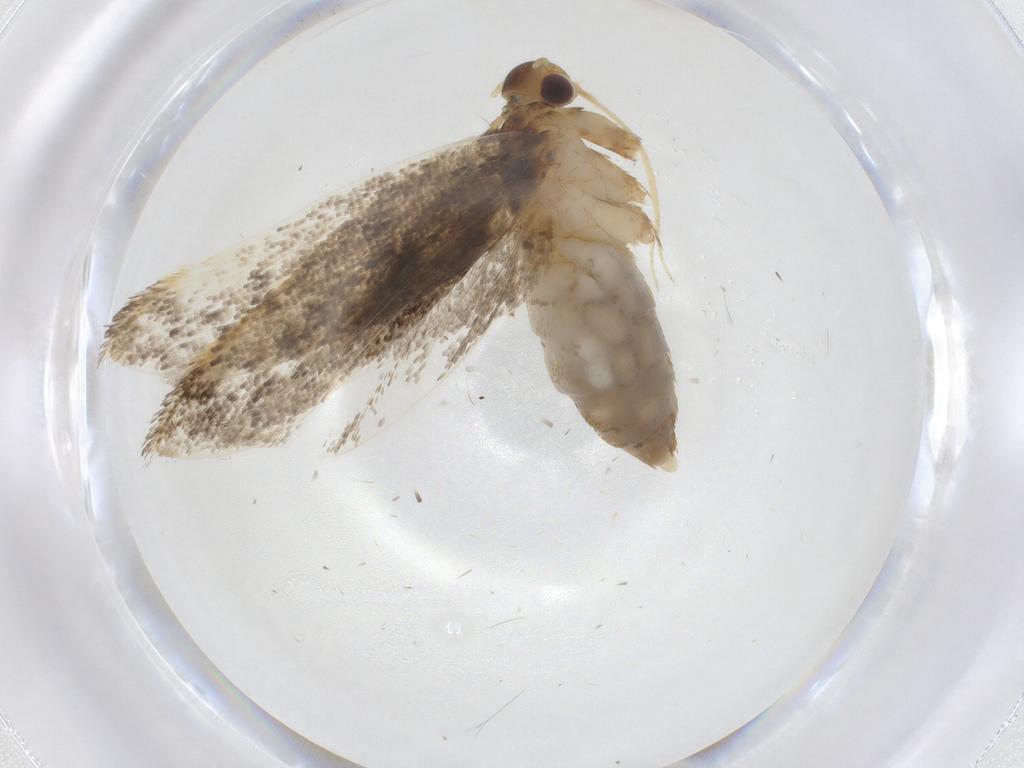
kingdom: Animalia
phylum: Arthropoda
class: Insecta
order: Lepidoptera
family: Lecithoceridae
